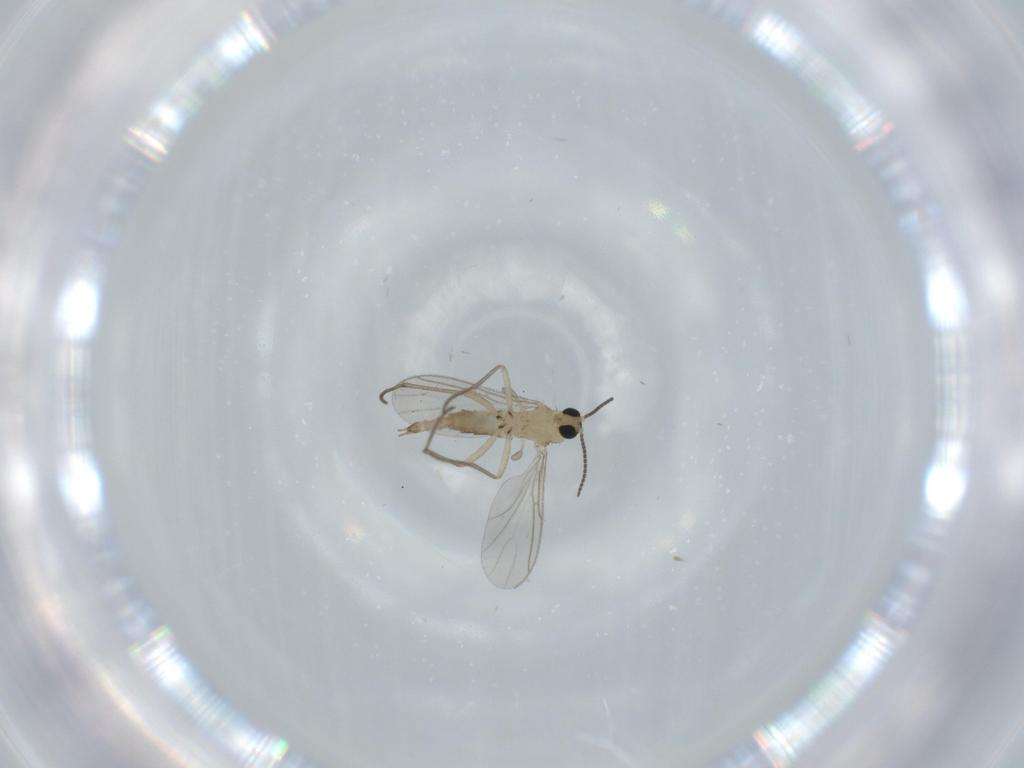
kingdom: Animalia
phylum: Arthropoda
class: Insecta
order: Diptera
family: Sciaridae
